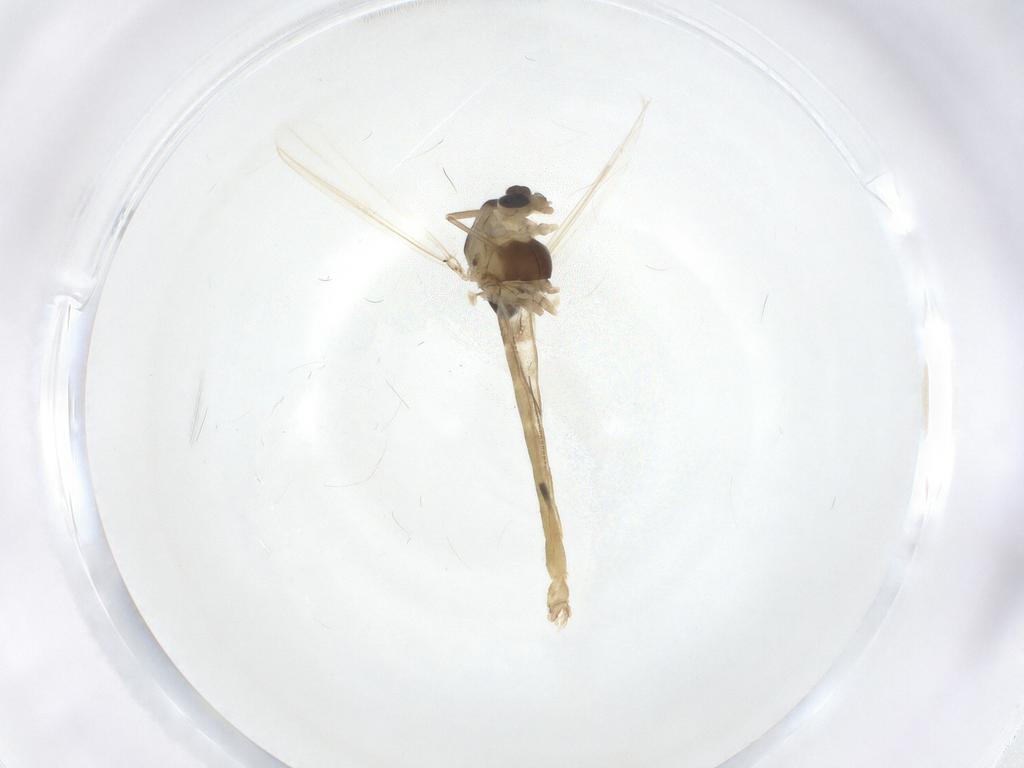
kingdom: Animalia
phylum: Arthropoda
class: Insecta
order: Diptera
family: Chironomidae
